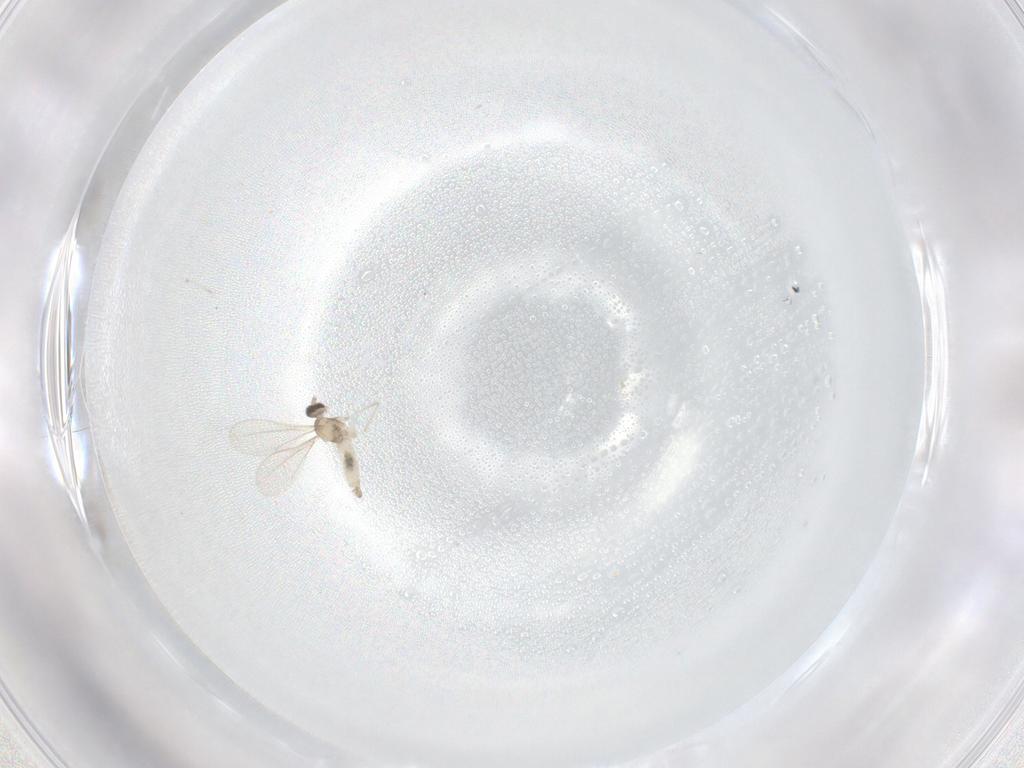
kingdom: Animalia
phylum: Arthropoda
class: Insecta
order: Diptera
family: Cecidomyiidae
